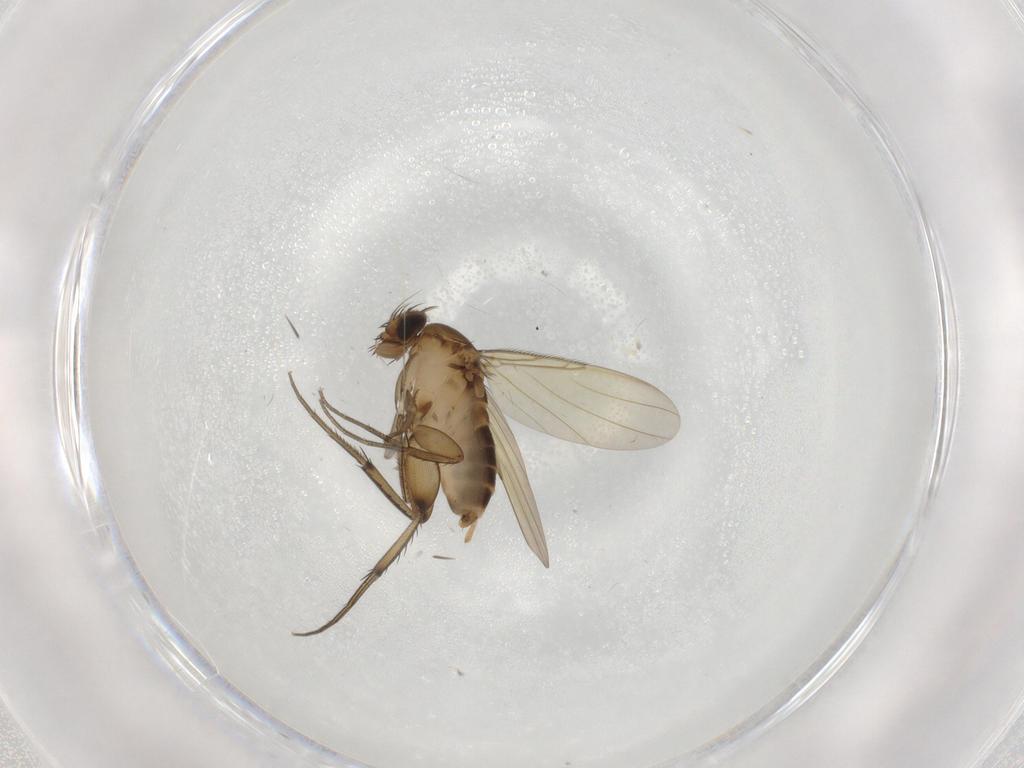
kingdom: Animalia
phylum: Arthropoda
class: Insecta
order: Diptera
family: Phoridae
